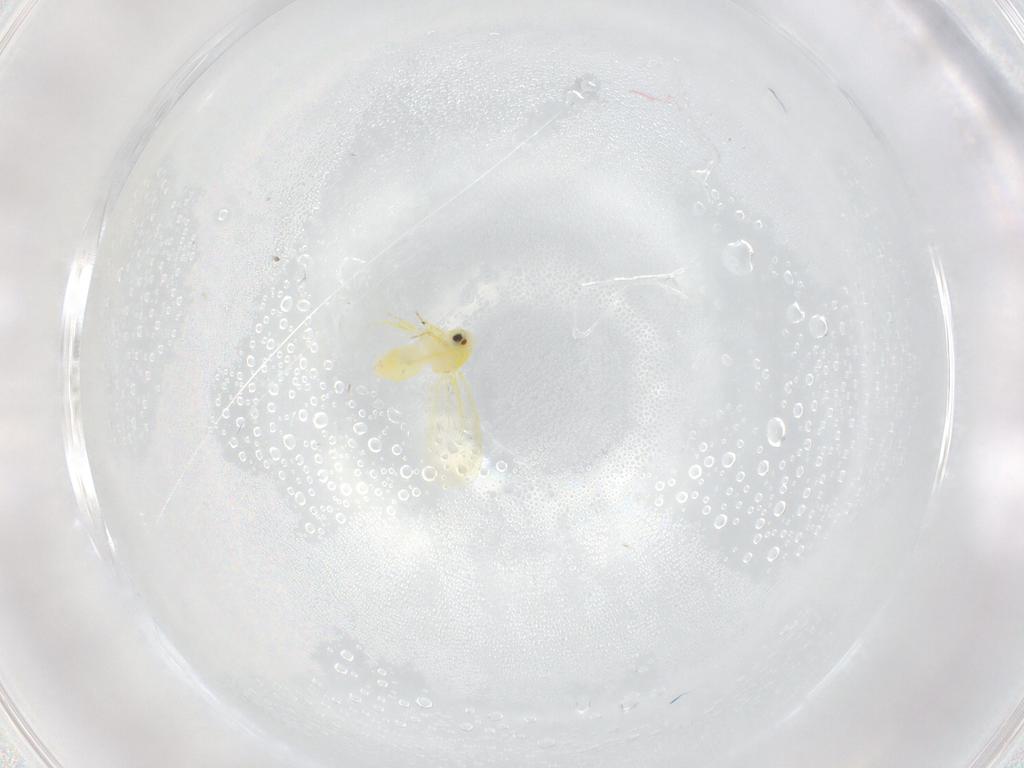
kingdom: Animalia
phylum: Arthropoda
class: Insecta
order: Hemiptera
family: Aleyrodidae
